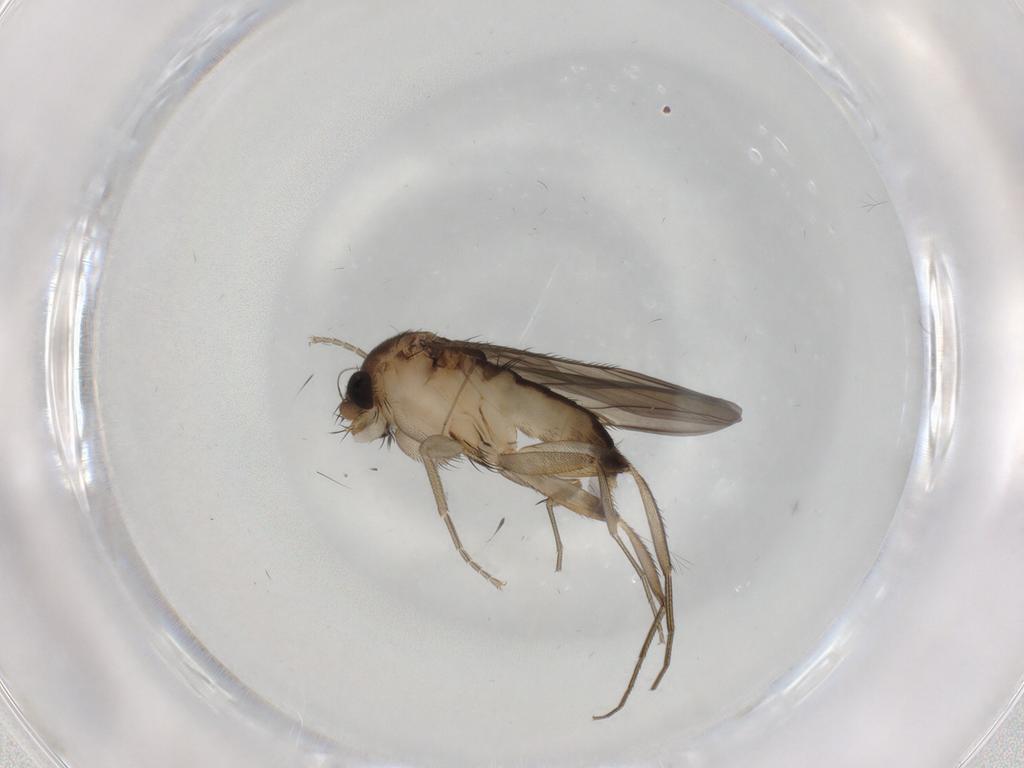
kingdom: Animalia
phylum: Arthropoda
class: Insecta
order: Diptera
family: Phoridae
